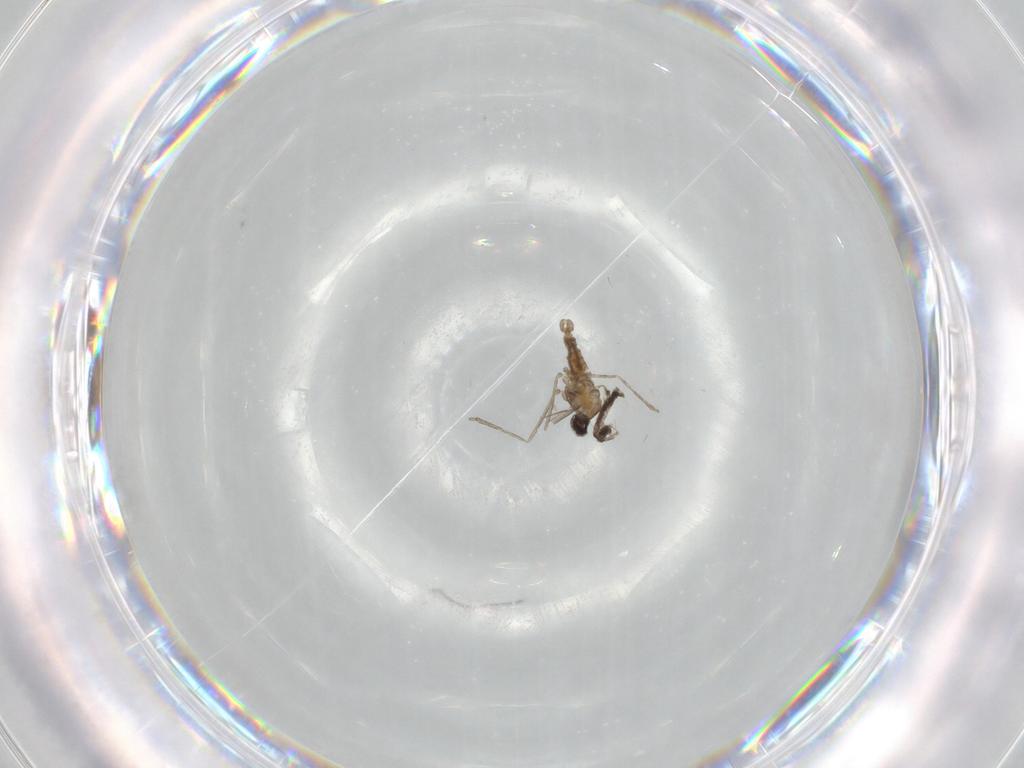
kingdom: Animalia
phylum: Arthropoda
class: Insecta
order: Diptera
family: Cecidomyiidae
